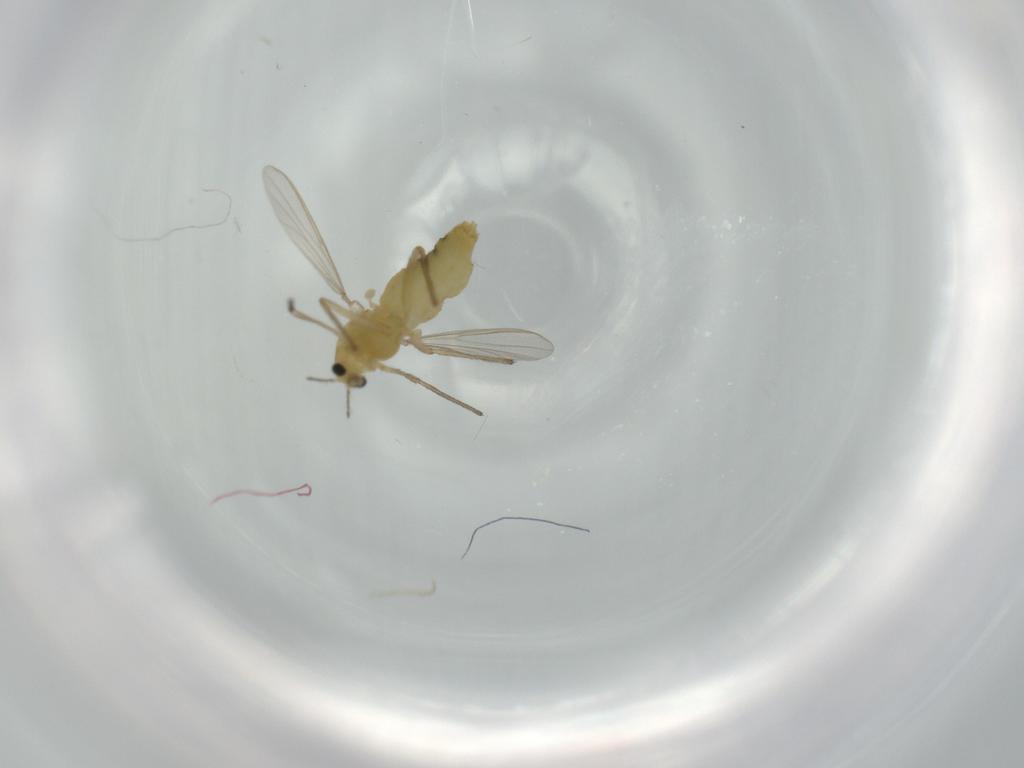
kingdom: Animalia
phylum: Arthropoda
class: Insecta
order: Diptera
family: Chironomidae
